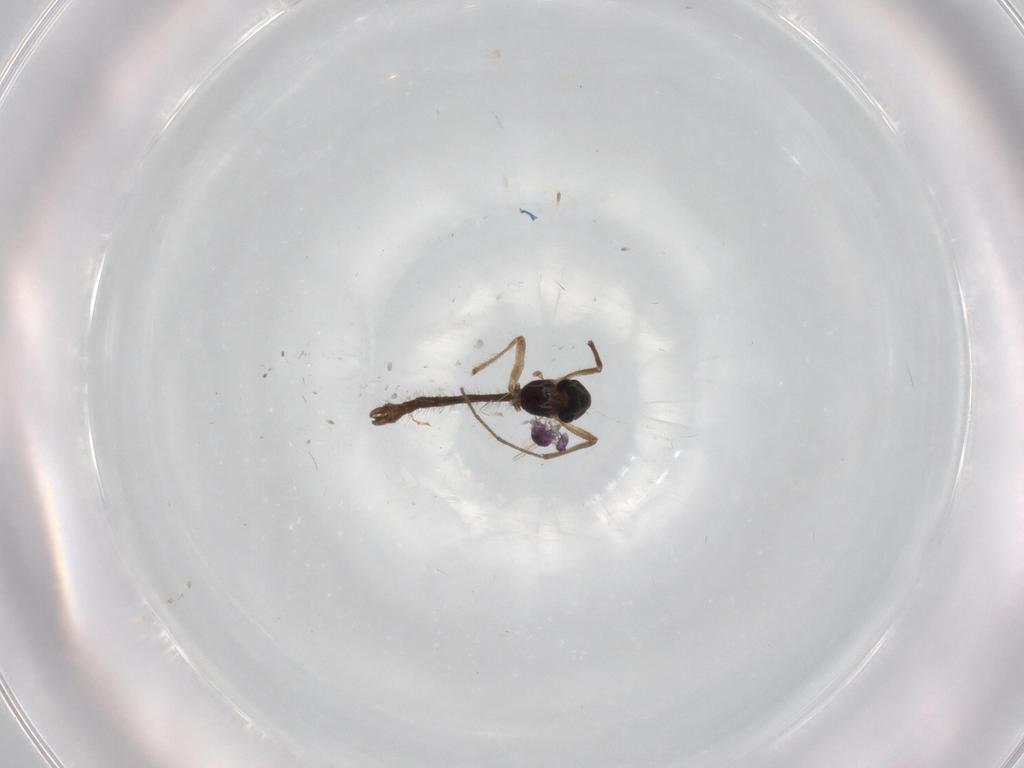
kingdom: Animalia
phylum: Arthropoda
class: Insecta
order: Diptera
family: Chironomidae
